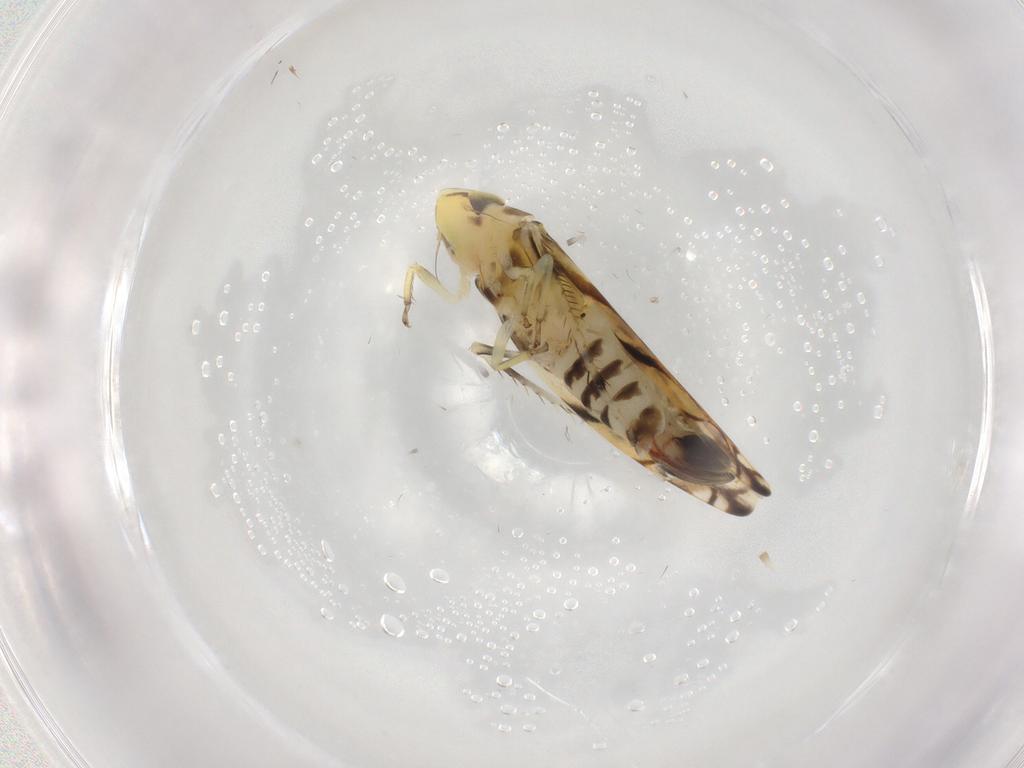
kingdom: Animalia
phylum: Arthropoda
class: Insecta
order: Hemiptera
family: Cicadellidae
